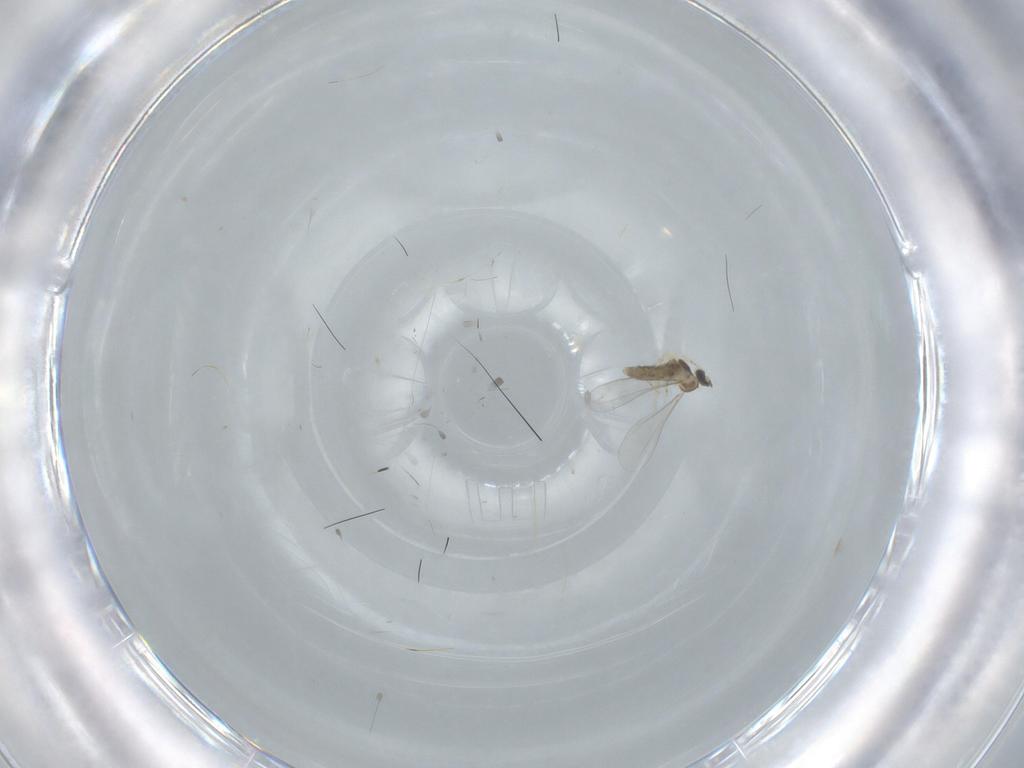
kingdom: Animalia
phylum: Arthropoda
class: Insecta
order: Diptera
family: Cecidomyiidae
